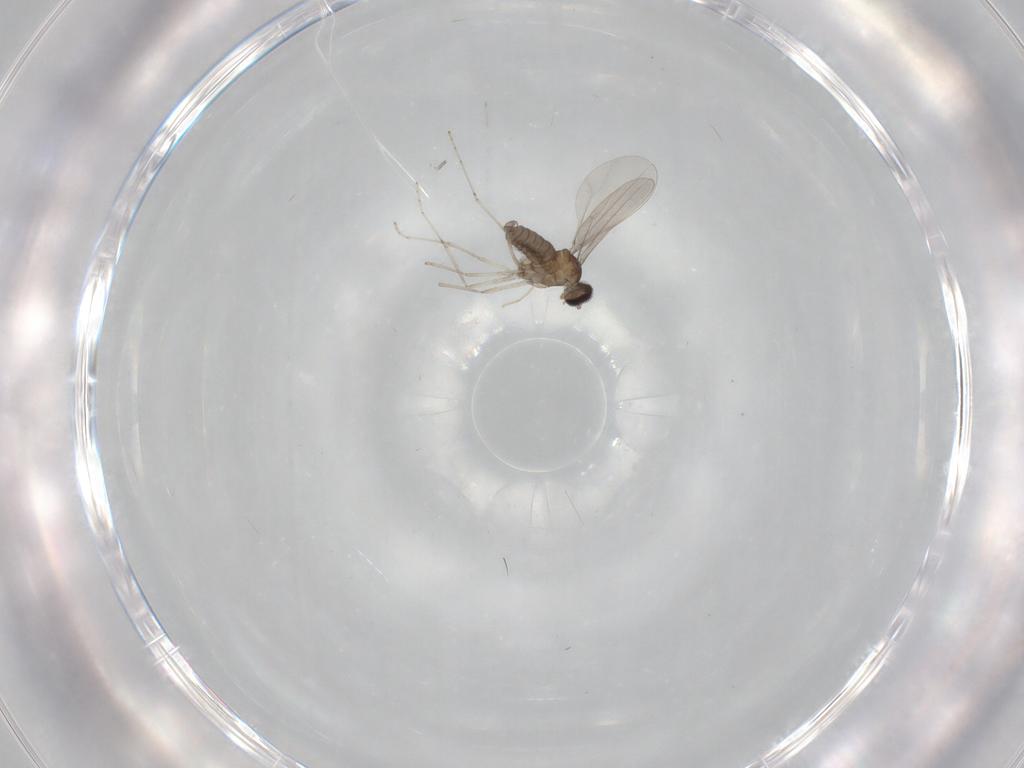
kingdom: Animalia
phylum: Arthropoda
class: Insecta
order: Diptera
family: Cecidomyiidae
